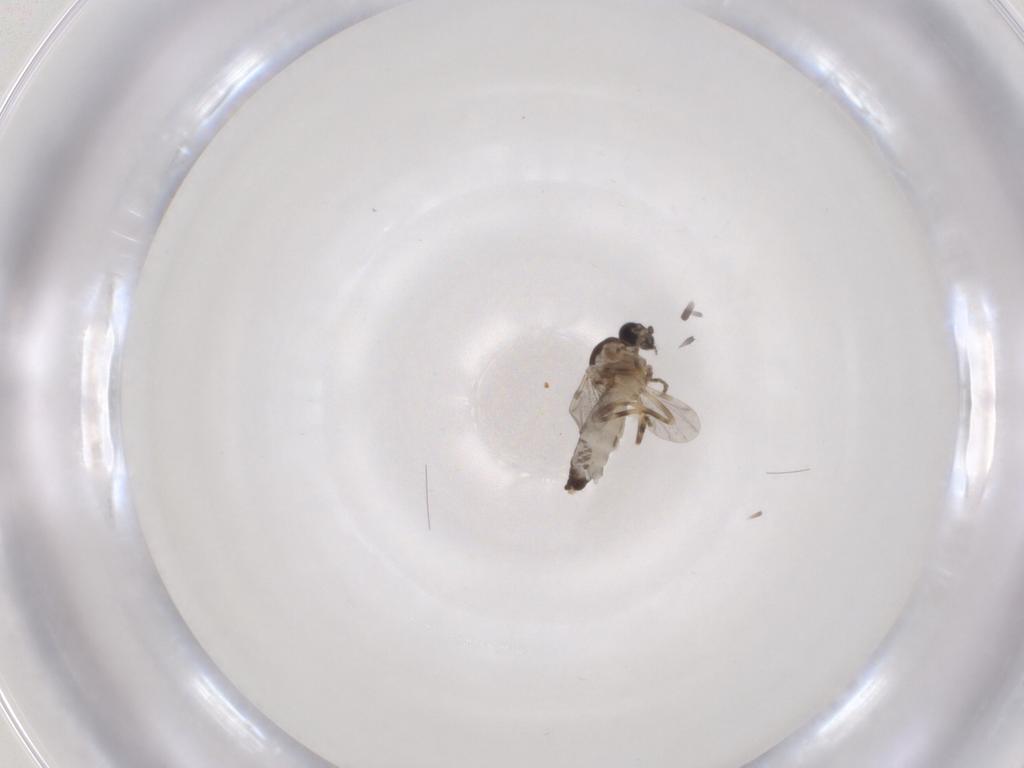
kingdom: Animalia
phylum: Arthropoda
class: Insecta
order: Diptera
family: Ceratopogonidae
